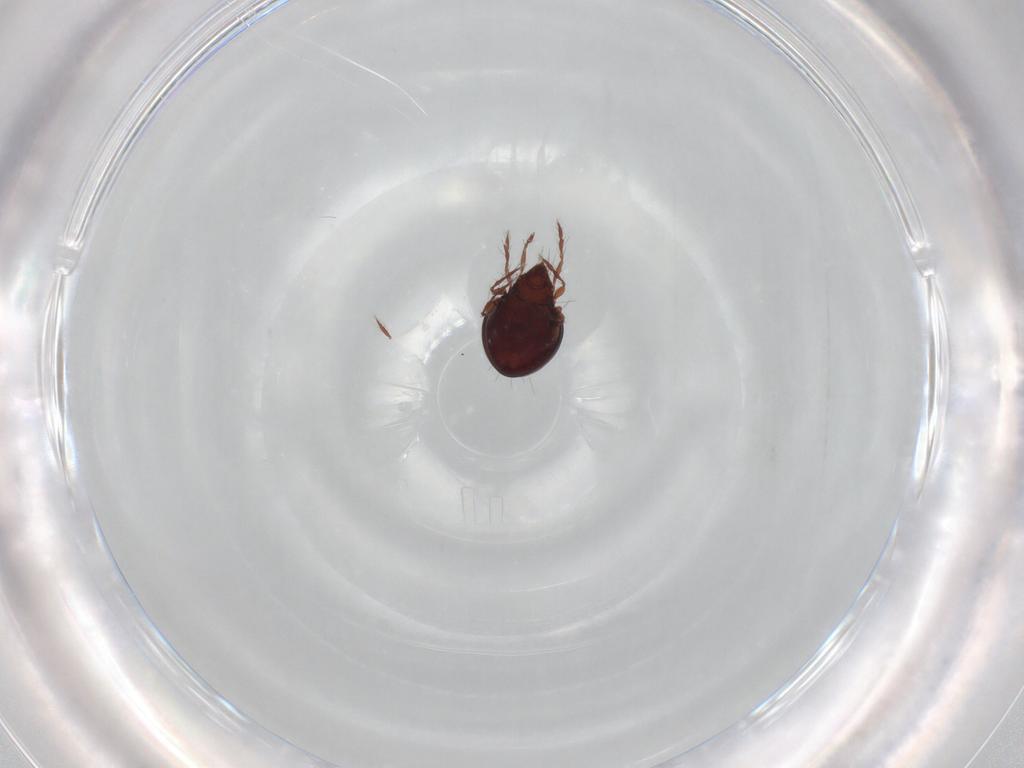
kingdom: Animalia
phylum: Arthropoda
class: Arachnida
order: Sarcoptiformes
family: Ceratoppiidae
